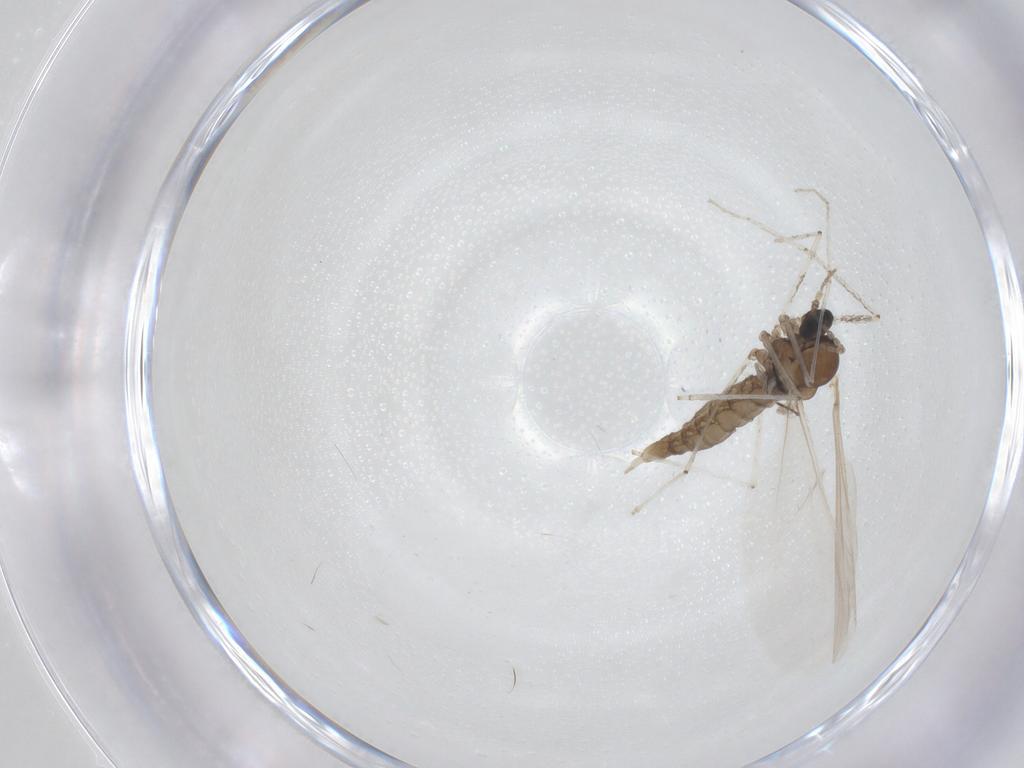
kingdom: Animalia
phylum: Arthropoda
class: Insecta
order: Diptera
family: Cecidomyiidae
